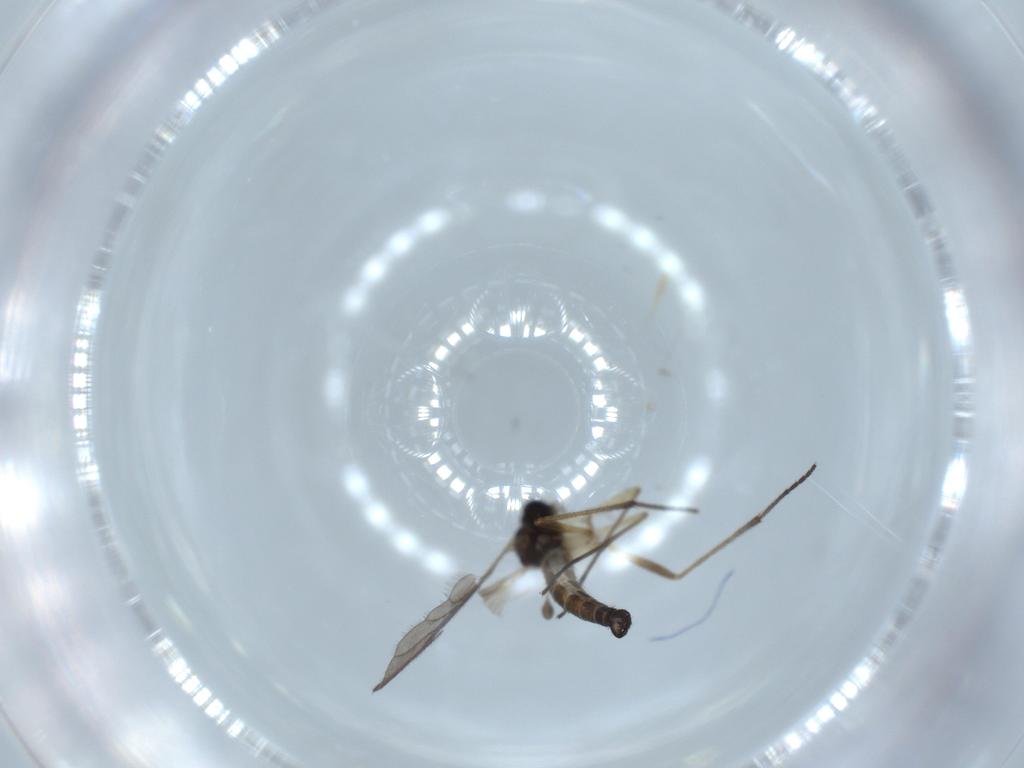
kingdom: Animalia
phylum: Arthropoda
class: Insecta
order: Diptera
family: Sciaridae
